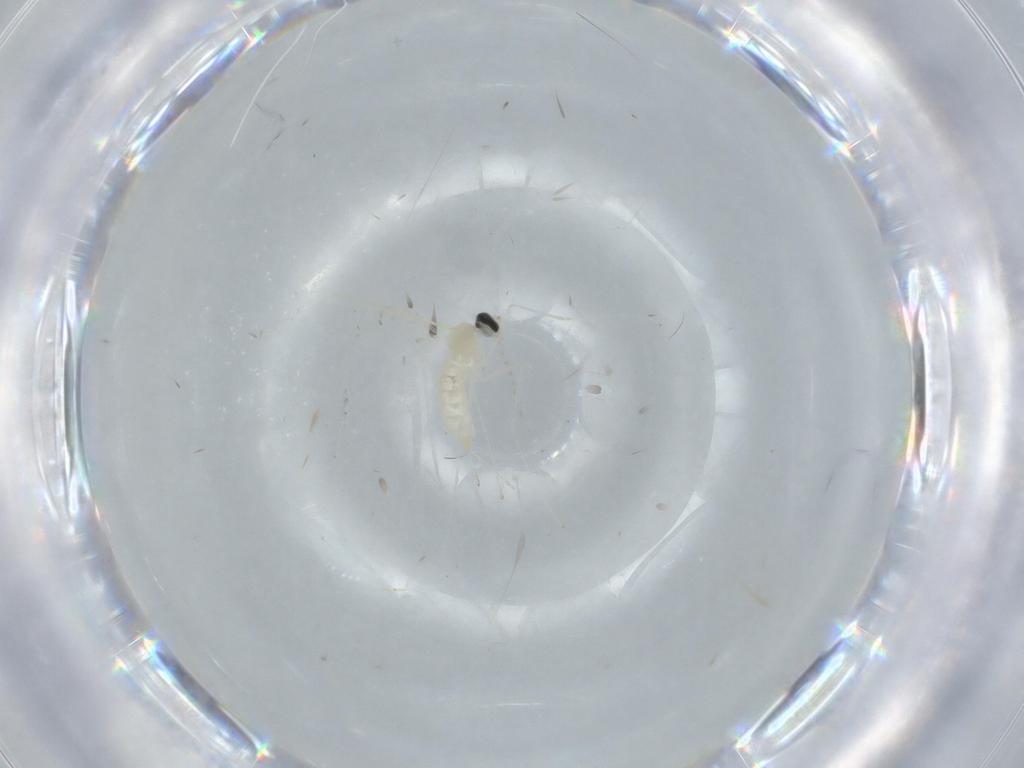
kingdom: Animalia
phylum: Arthropoda
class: Insecta
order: Diptera
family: Cecidomyiidae
